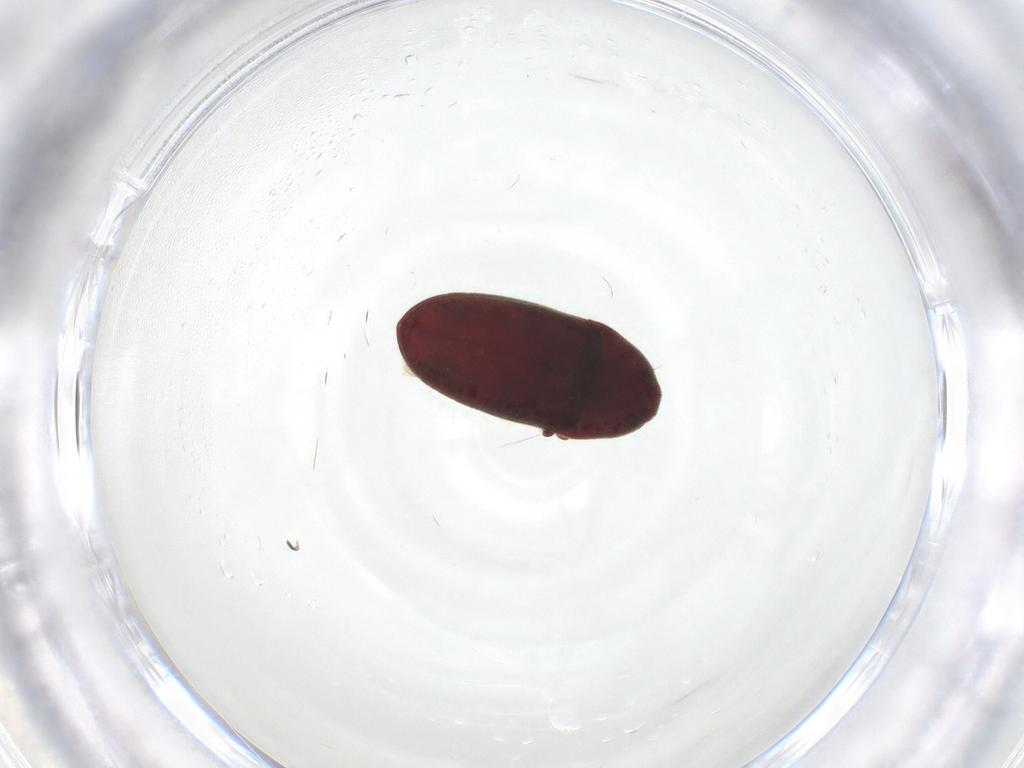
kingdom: Animalia
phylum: Arthropoda
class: Insecta
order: Coleoptera
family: Throscidae
